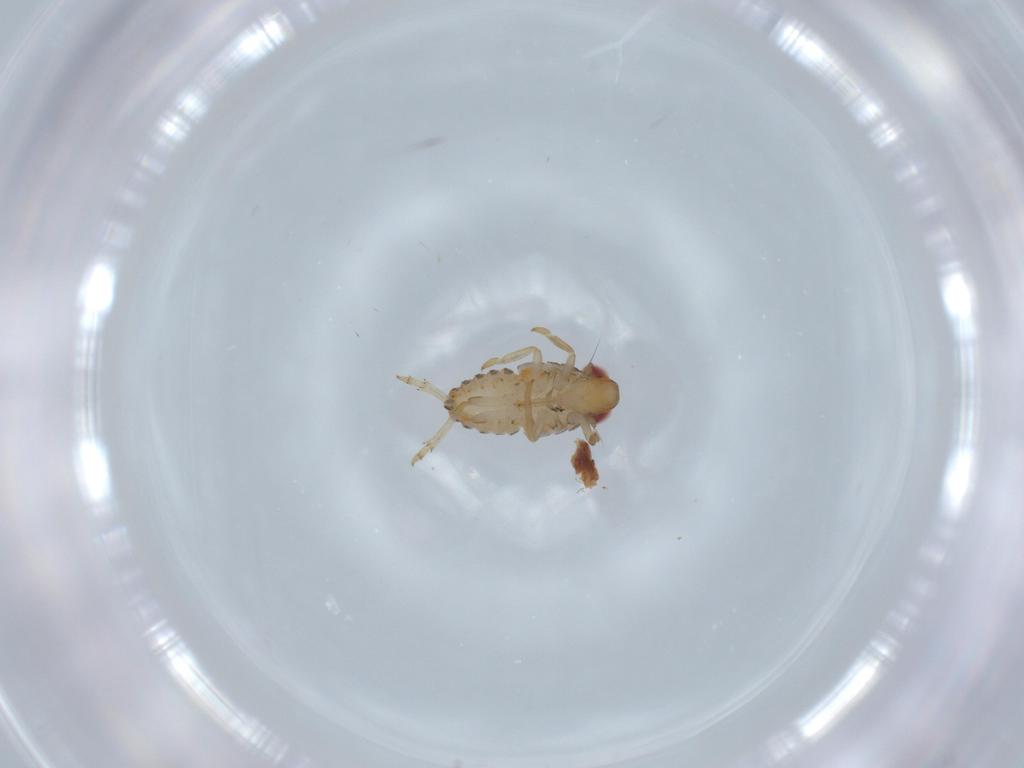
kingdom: Animalia
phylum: Arthropoda
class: Insecta
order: Hemiptera
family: Issidae
